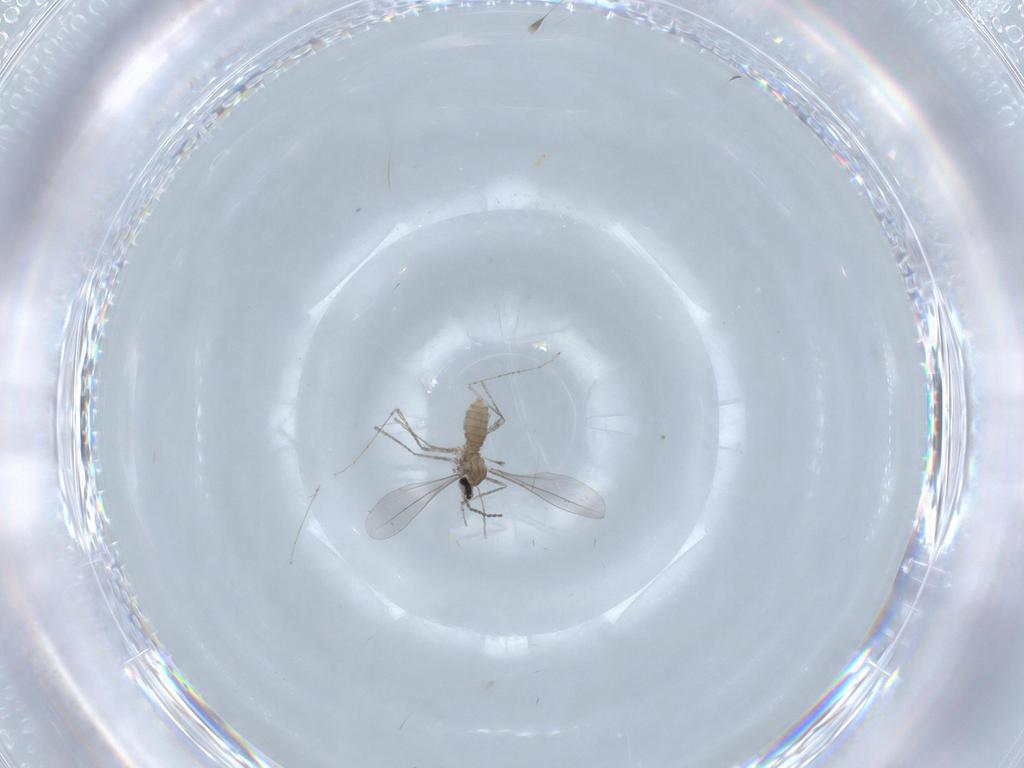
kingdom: Animalia
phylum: Arthropoda
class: Insecta
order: Diptera
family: Cecidomyiidae
